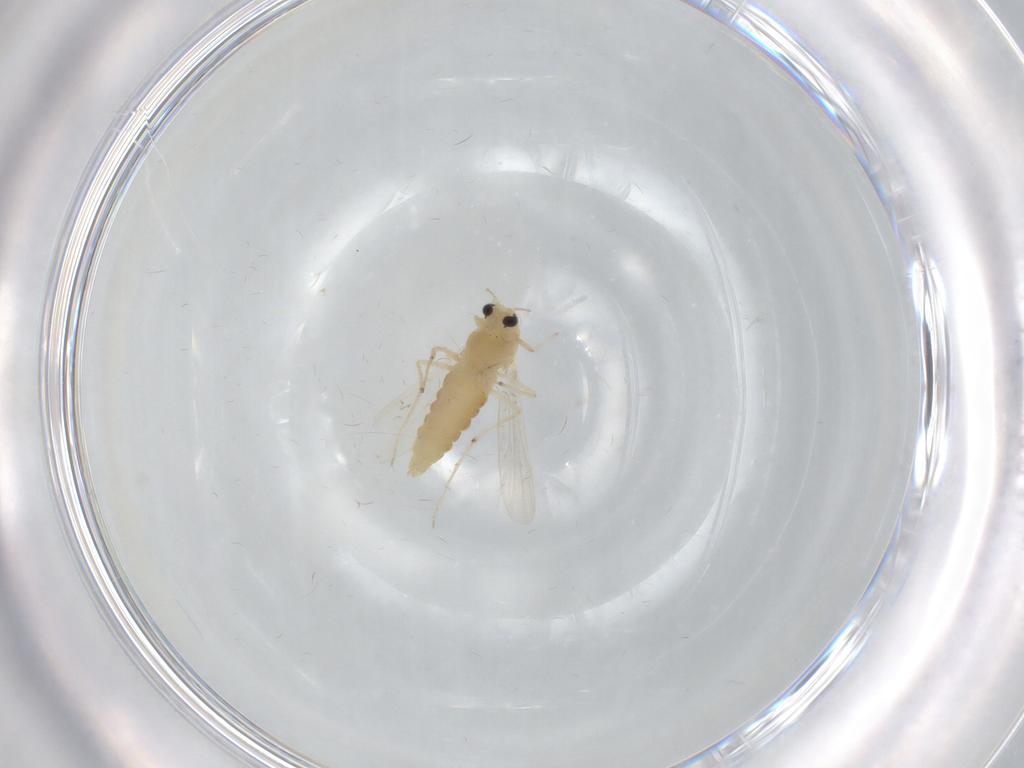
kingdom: Animalia
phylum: Arthropoda
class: Insecta
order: Diptera
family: Chironomidae
